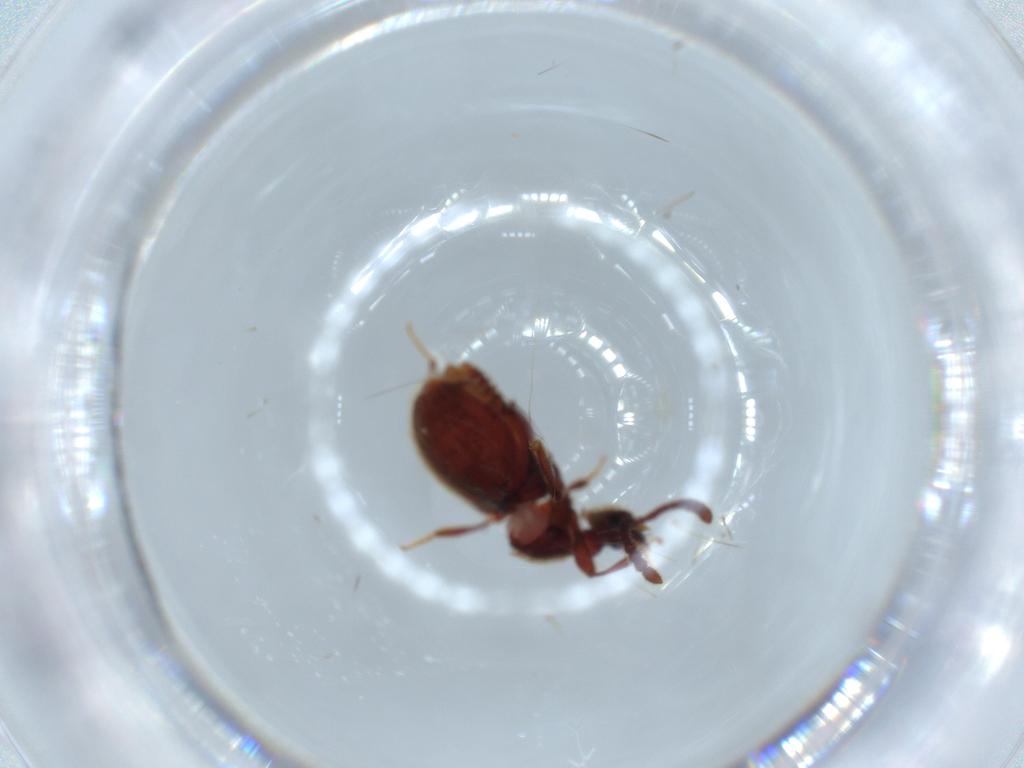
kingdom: Animalia
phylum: Arthropoda
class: Insecta
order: Coleoptera
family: Staphylinidae
